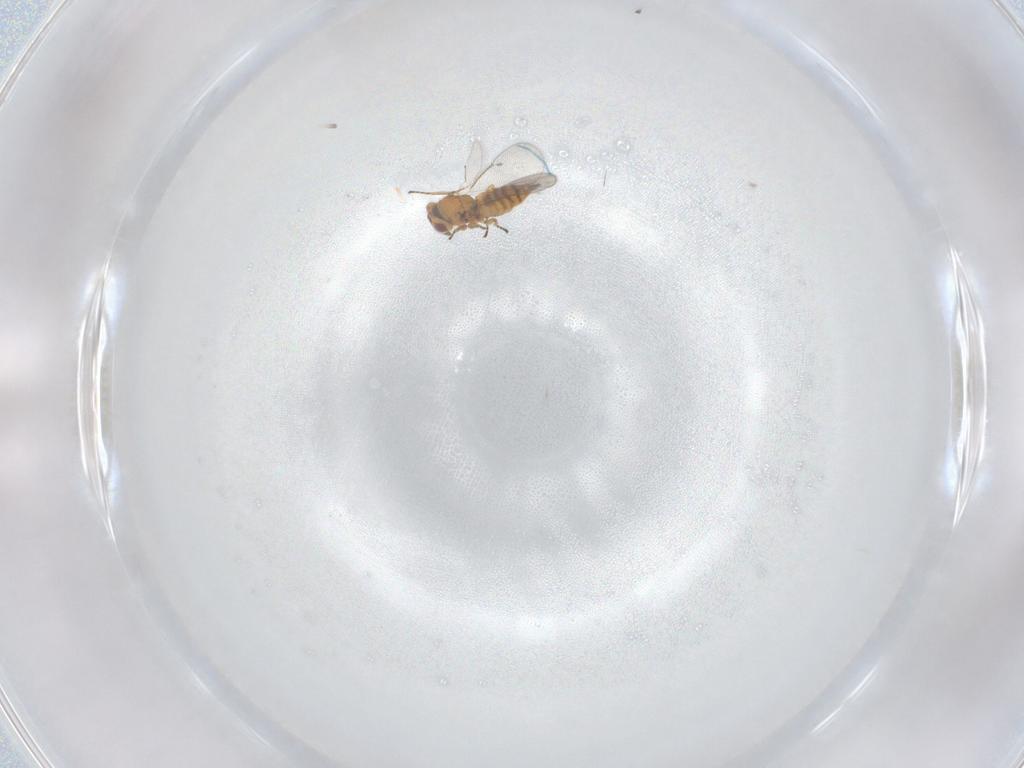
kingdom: Animalia
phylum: Arthropoda
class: Insecta
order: Hymenoptera
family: Eulophidae
